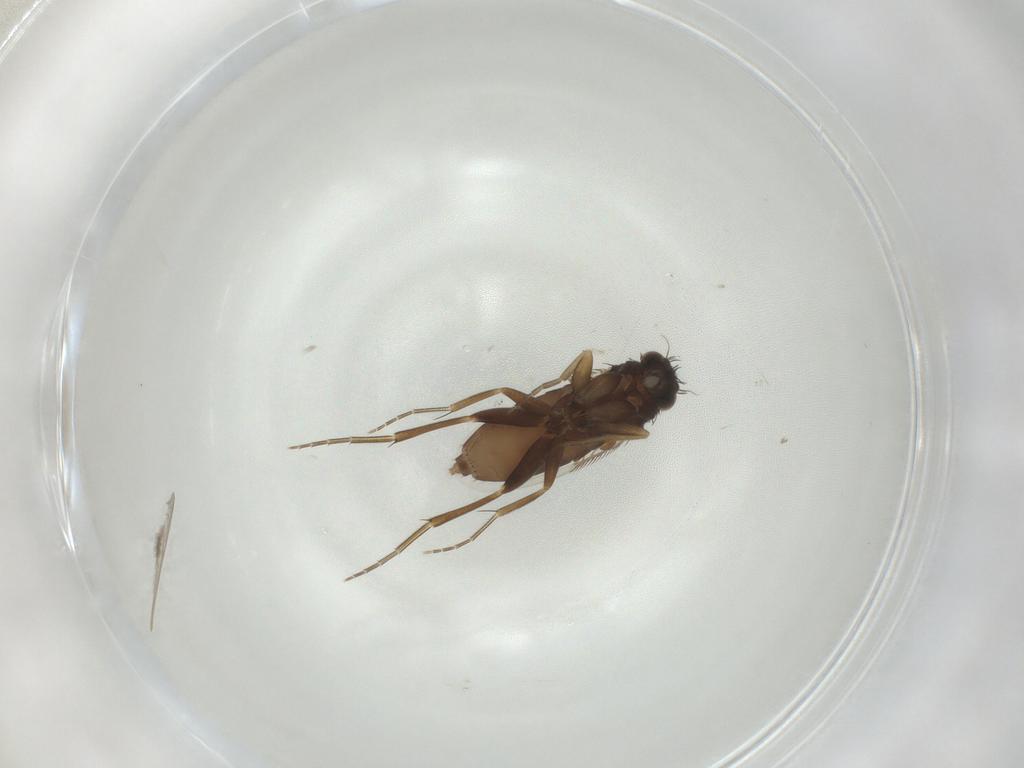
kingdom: Animalia
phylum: Arthropoda
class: Insecta
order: Diptera
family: Phoridae
